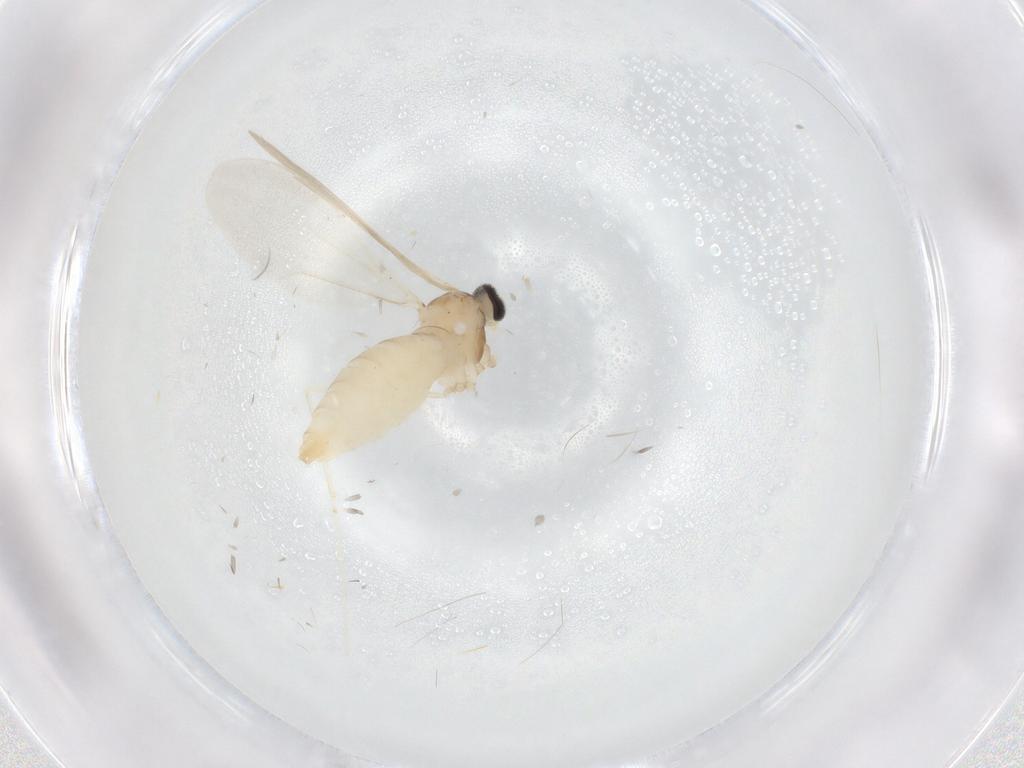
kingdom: Animalia
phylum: Arthropoda
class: Insecta
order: Diptera
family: Cecidomyiidae
